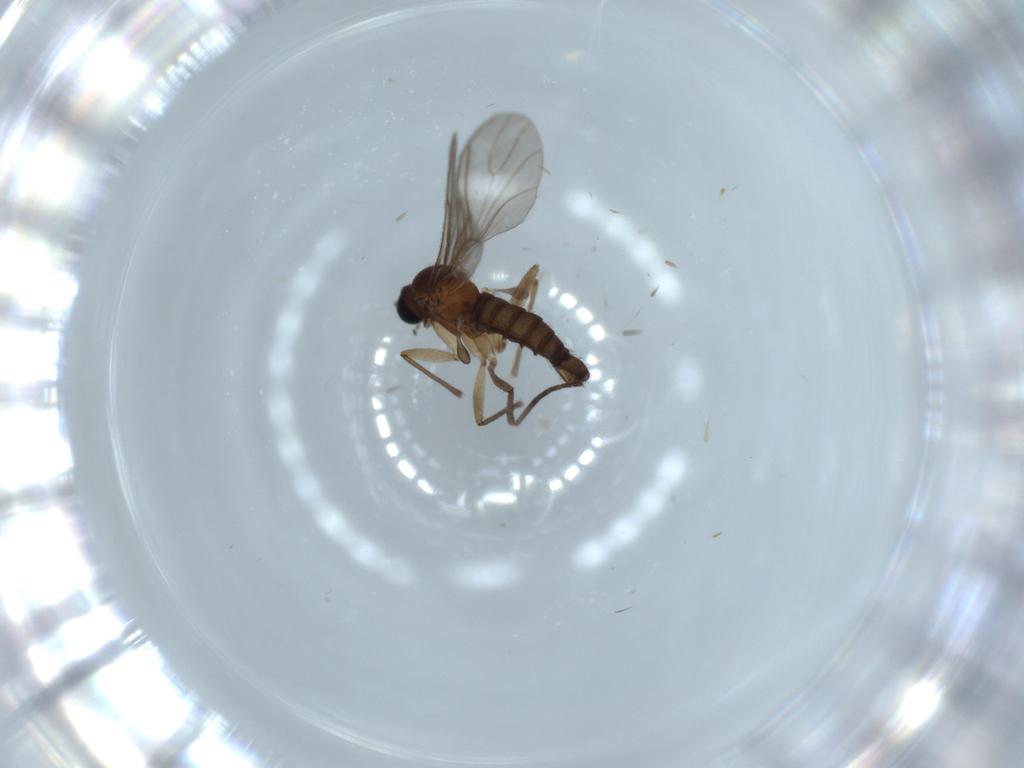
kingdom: Animalia
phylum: Arthropoda
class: Insecta
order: Diptera
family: Sciaridae
